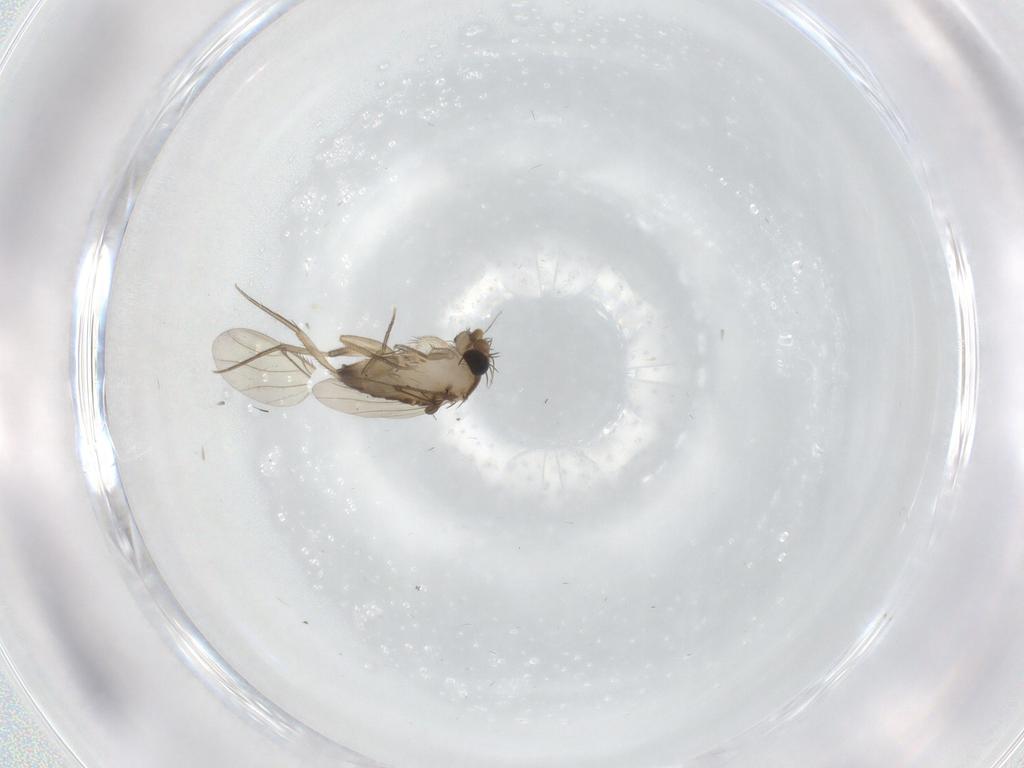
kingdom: Animalia
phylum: Arthropoda
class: Insecta
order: Diptera
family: Phoridae
